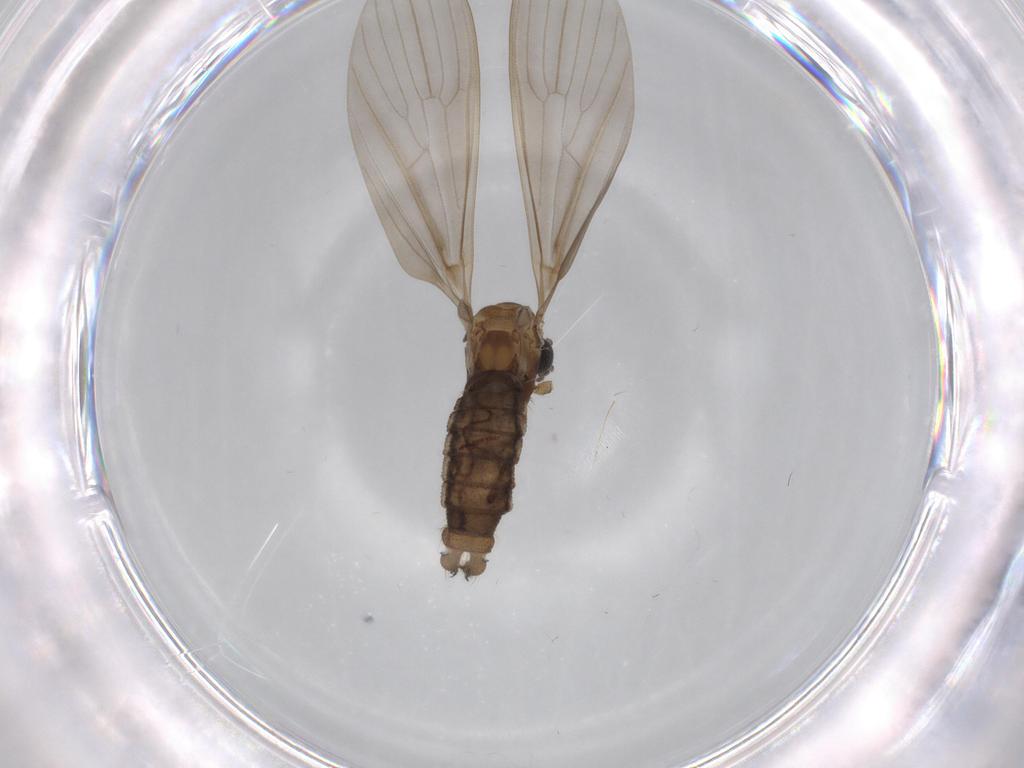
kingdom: Animalia
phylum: Arthropoda
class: Insecta
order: Diptera
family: Limoniidae
